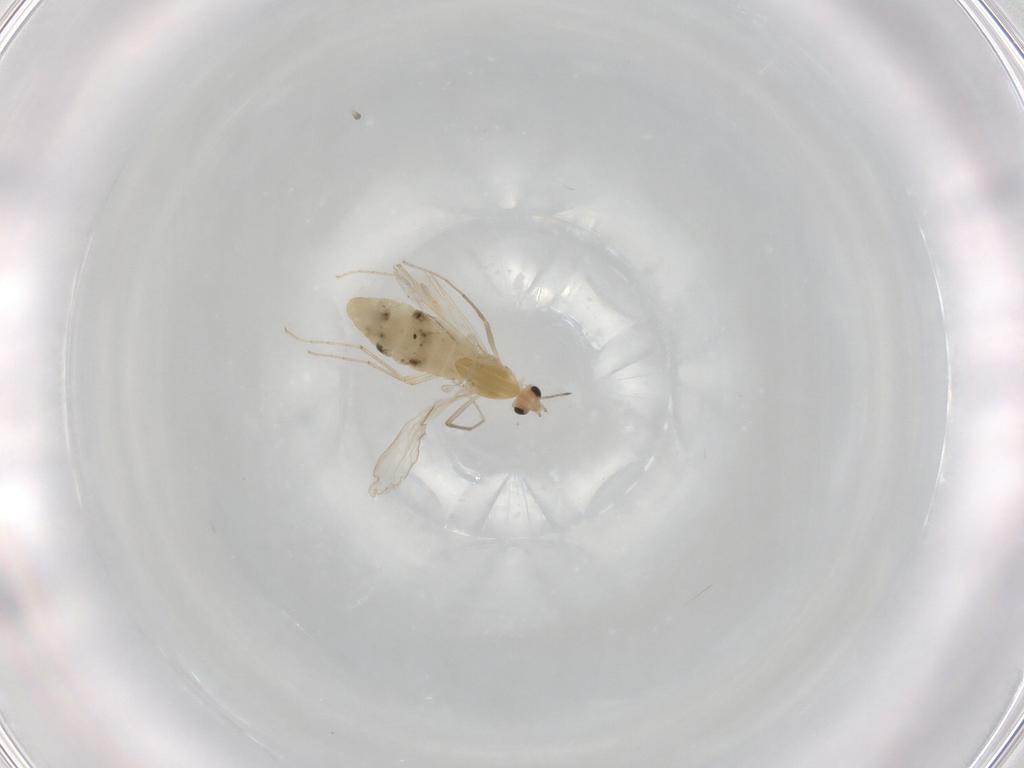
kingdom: Animalia
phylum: Arthropoda
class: Insecta
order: Diptera
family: Chironomidae
